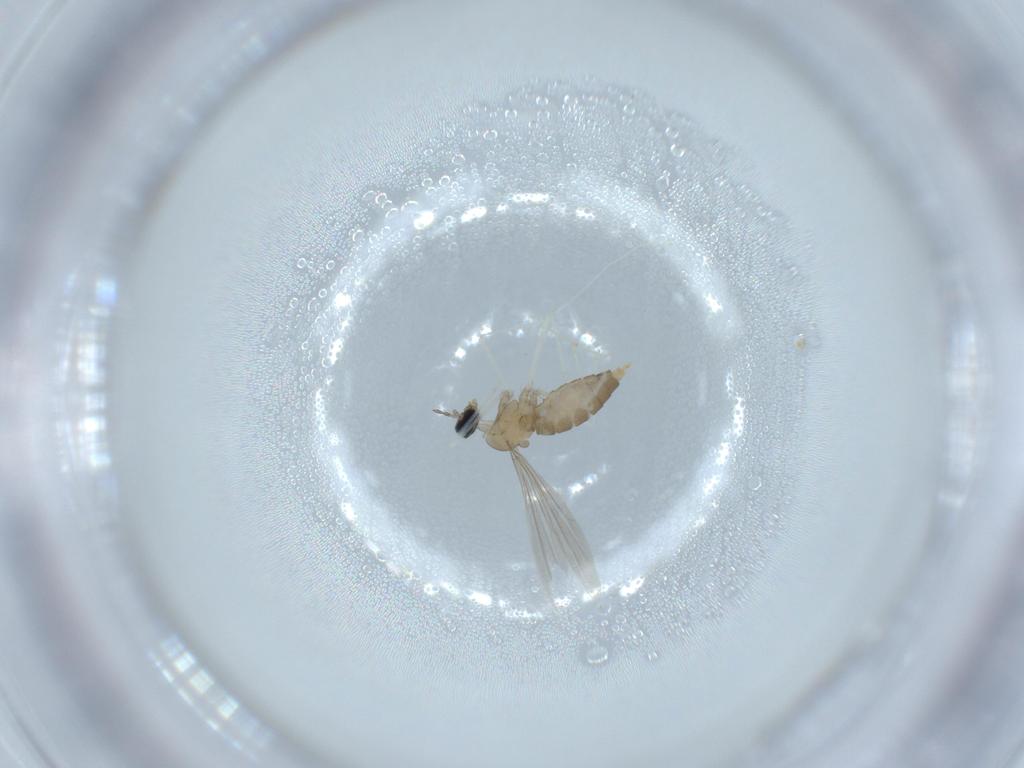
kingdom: Animalia
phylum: Arthropoda
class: Insecta
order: Diptera
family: Cecidomyiidae
